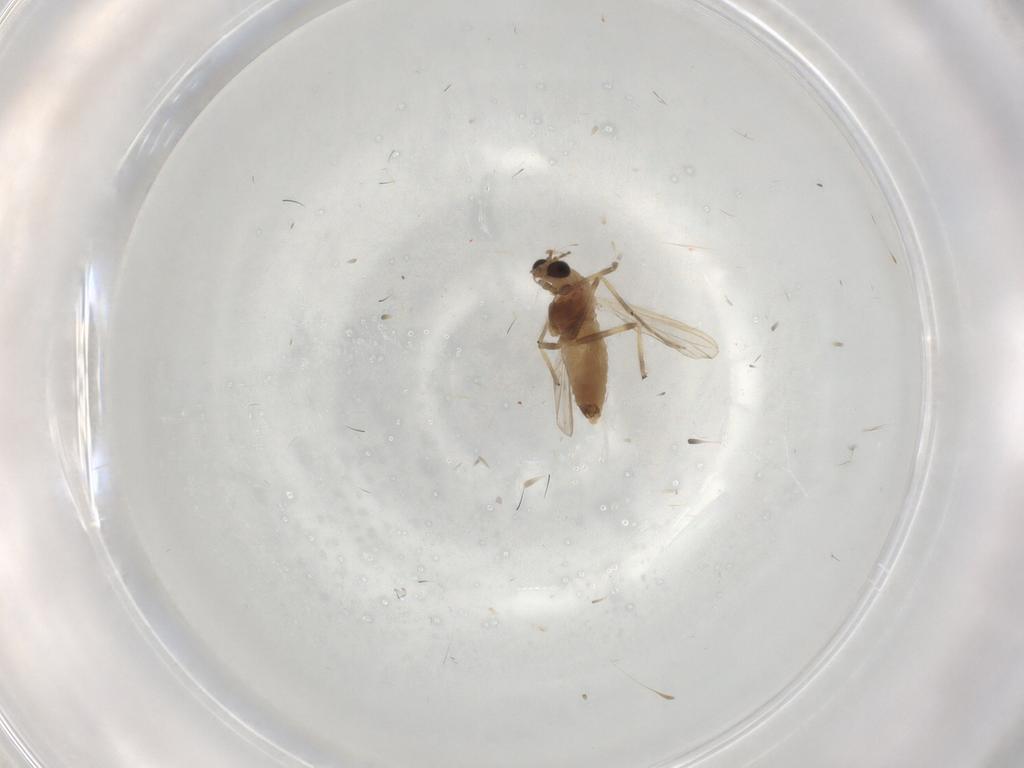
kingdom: Animalia
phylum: Arthropoda
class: Insecta
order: Diptera
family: Chironomidae
